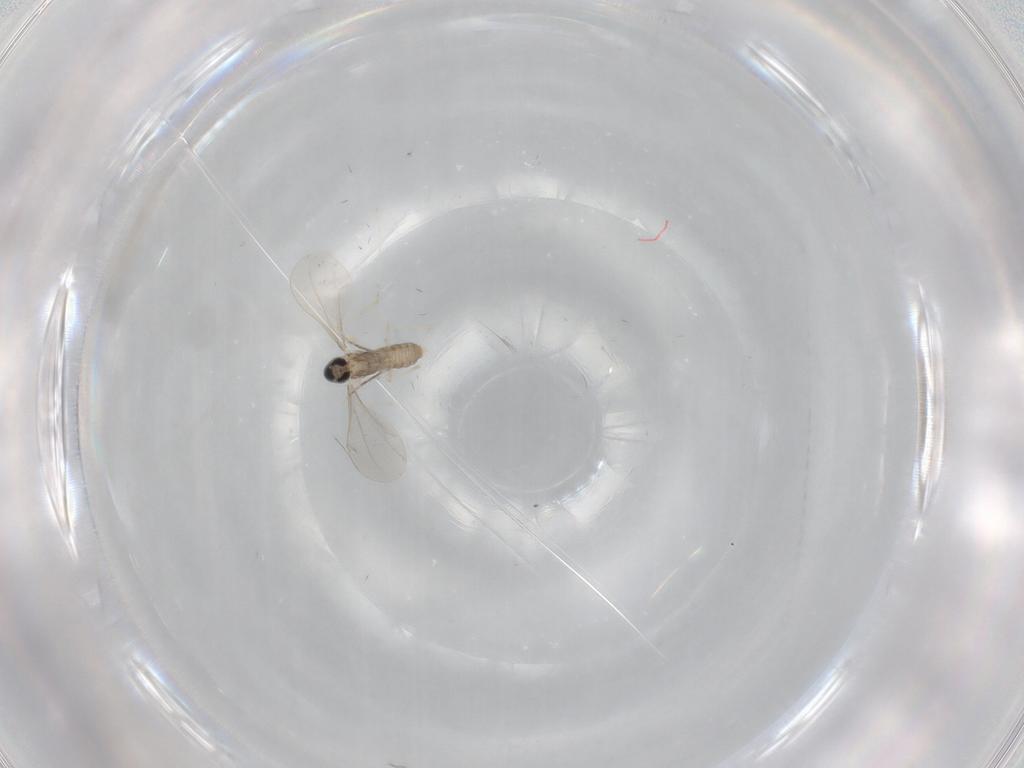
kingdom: Animalia
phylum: Arthropoda
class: Insecta
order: Diptera
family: Cecidomyiidae
